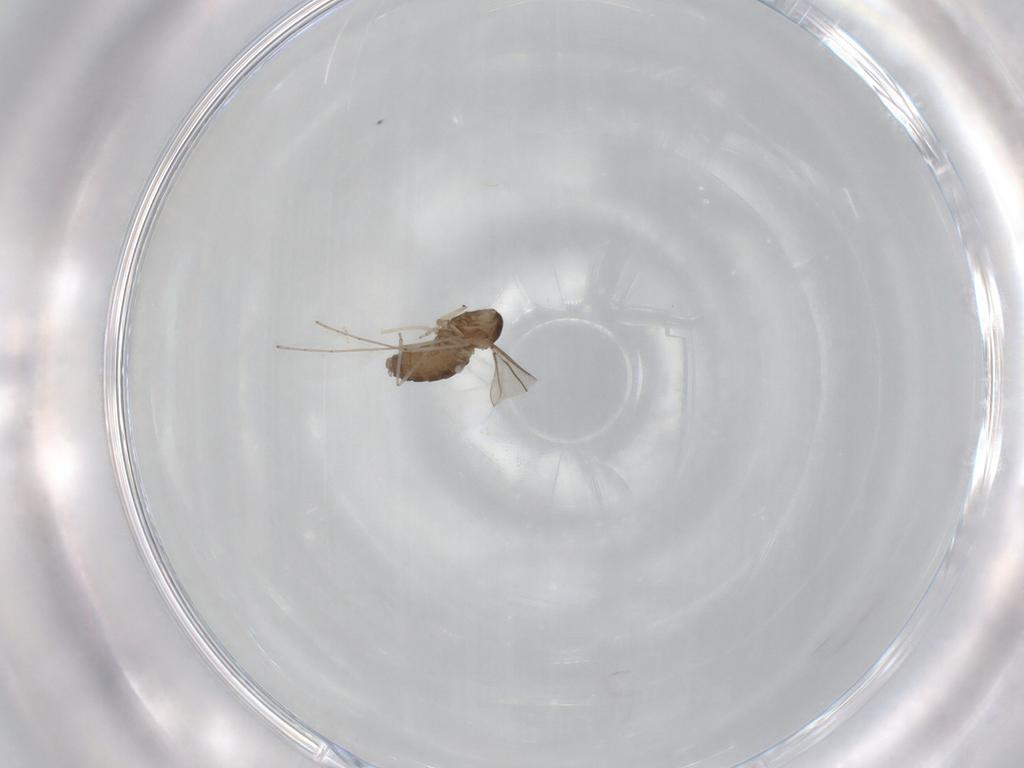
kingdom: Animalia
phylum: Arthropoda
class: Insecta
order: Diptera
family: Cecidomyiidae
